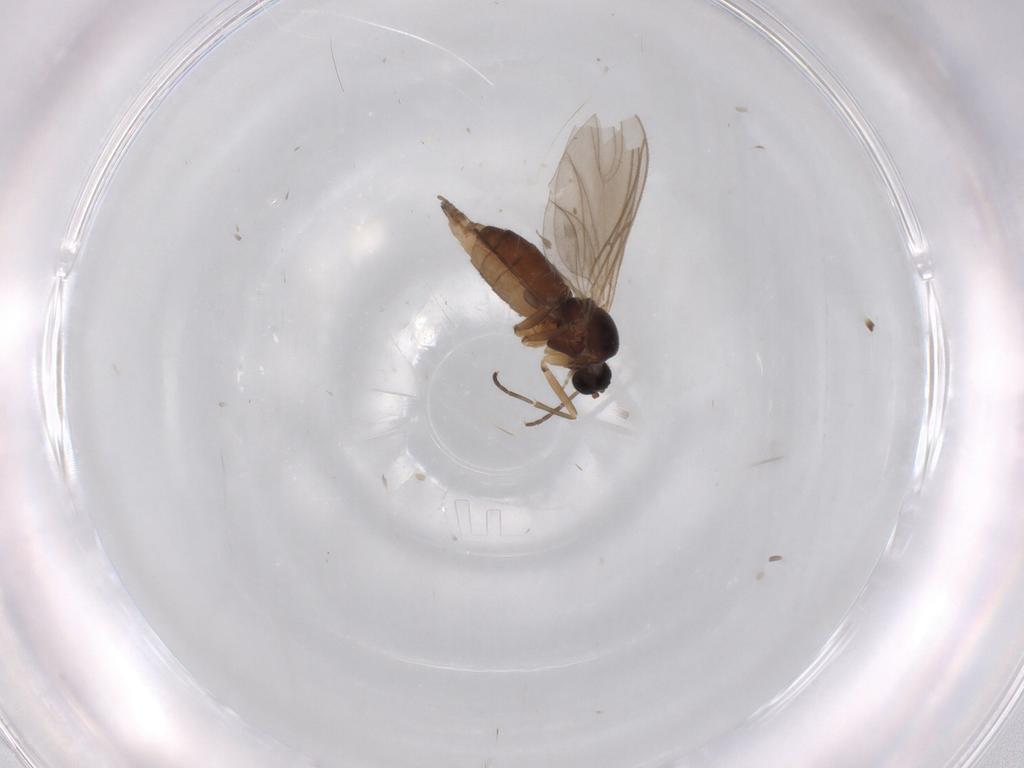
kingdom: Animalia
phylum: Arthropoda
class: Insecta
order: Diptera
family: Sciaridae
